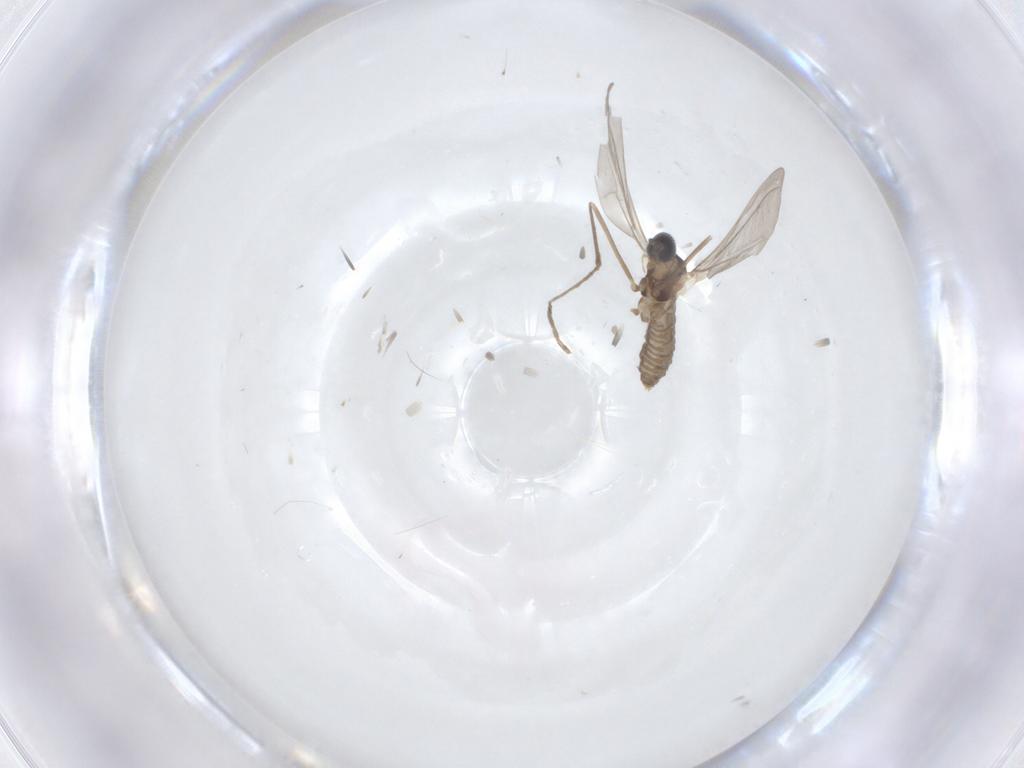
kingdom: Animalia
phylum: Arthropoda
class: Insecta
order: Diptera
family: Cecidomyiidae
